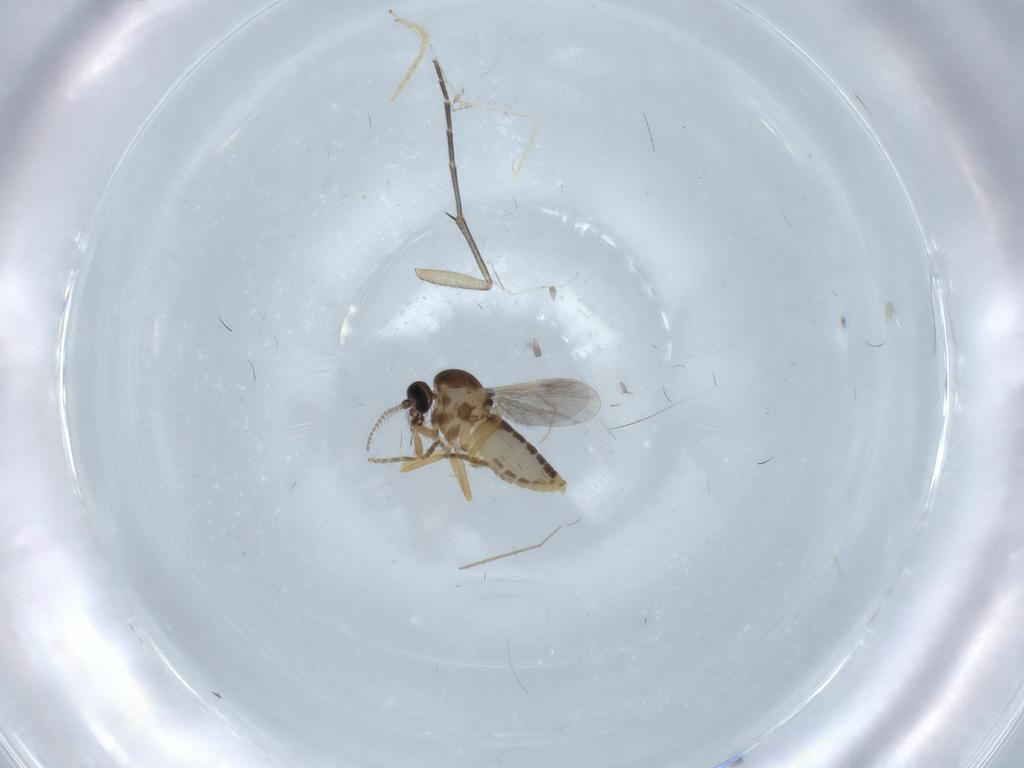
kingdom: Animalia
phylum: Arthropoda
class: Insecta
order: Diptera
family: Ceratopogonidae
